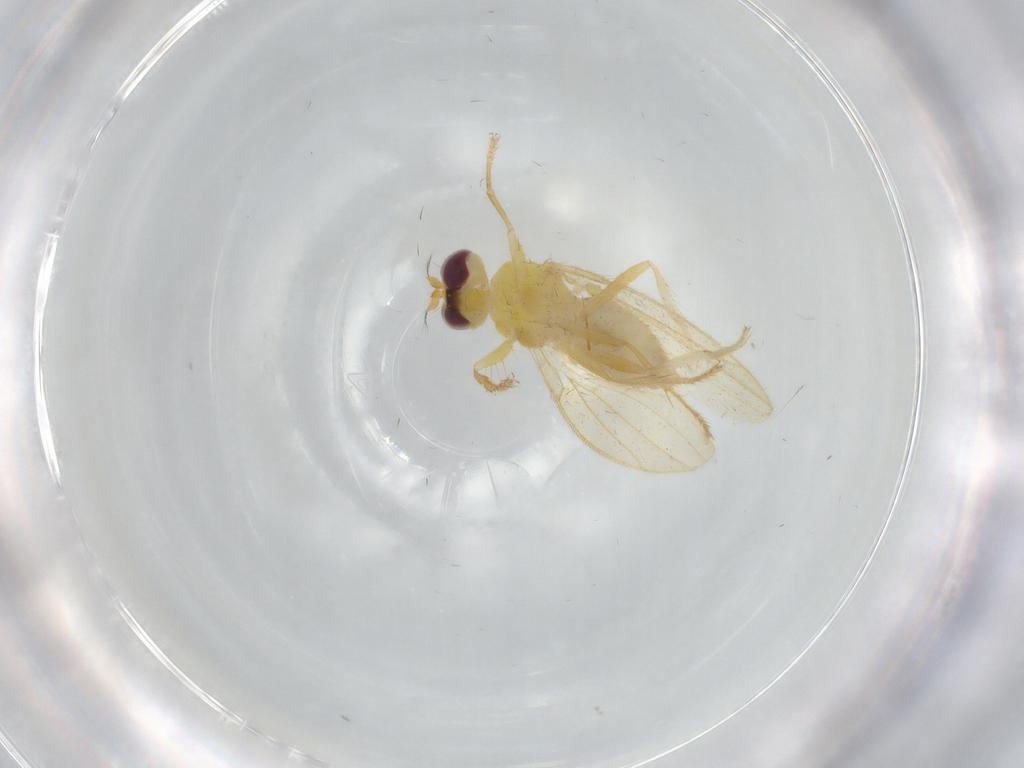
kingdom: Animalia
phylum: Arthropoda
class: Insecta
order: Diptera
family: Periscelididae
